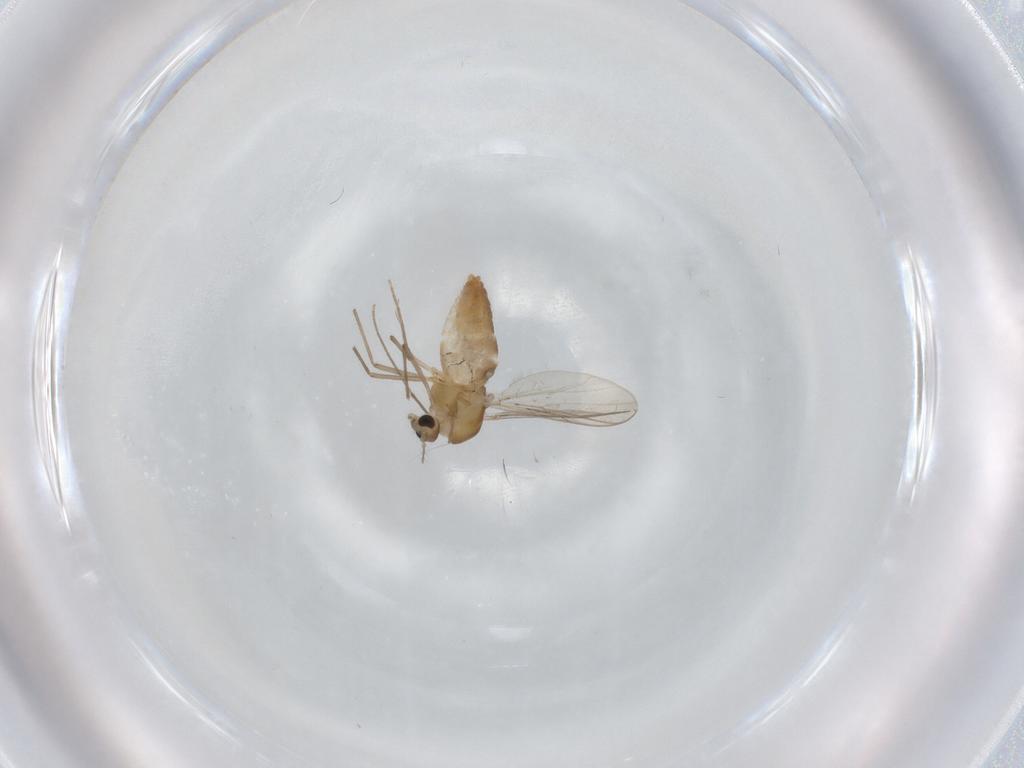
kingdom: Animalia
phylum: Arthropoda
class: Insecta
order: Diptera
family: Chironomidae
